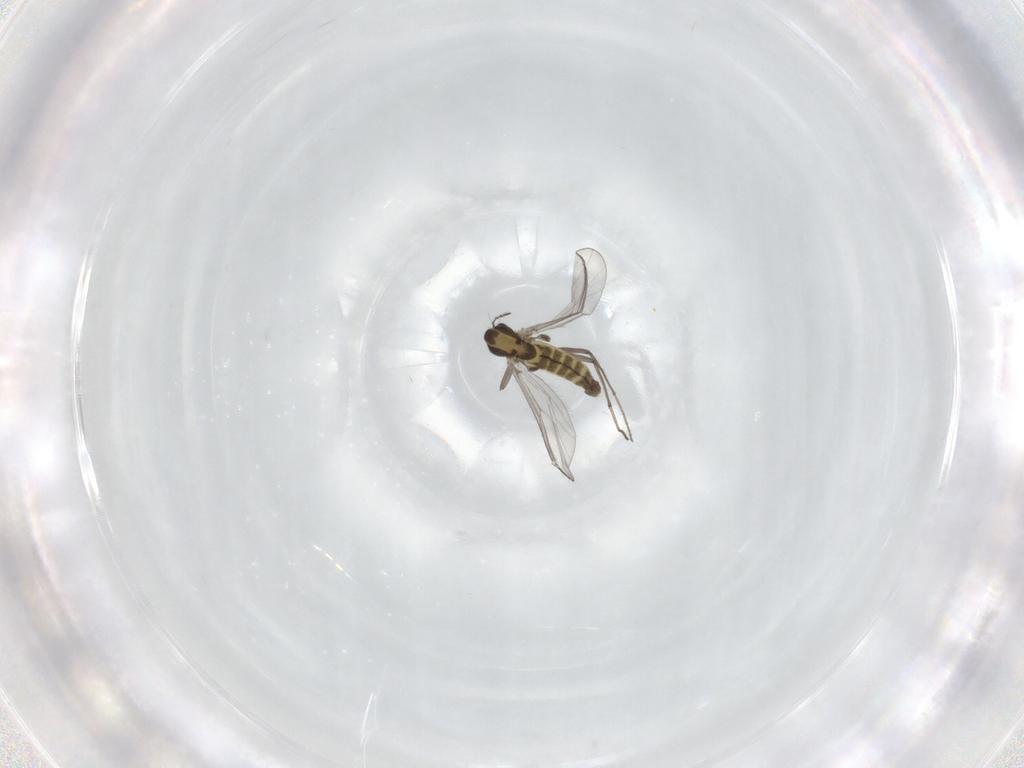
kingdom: Animalia
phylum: Arthropoda
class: Insecta
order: Diptera
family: Chironomidae
